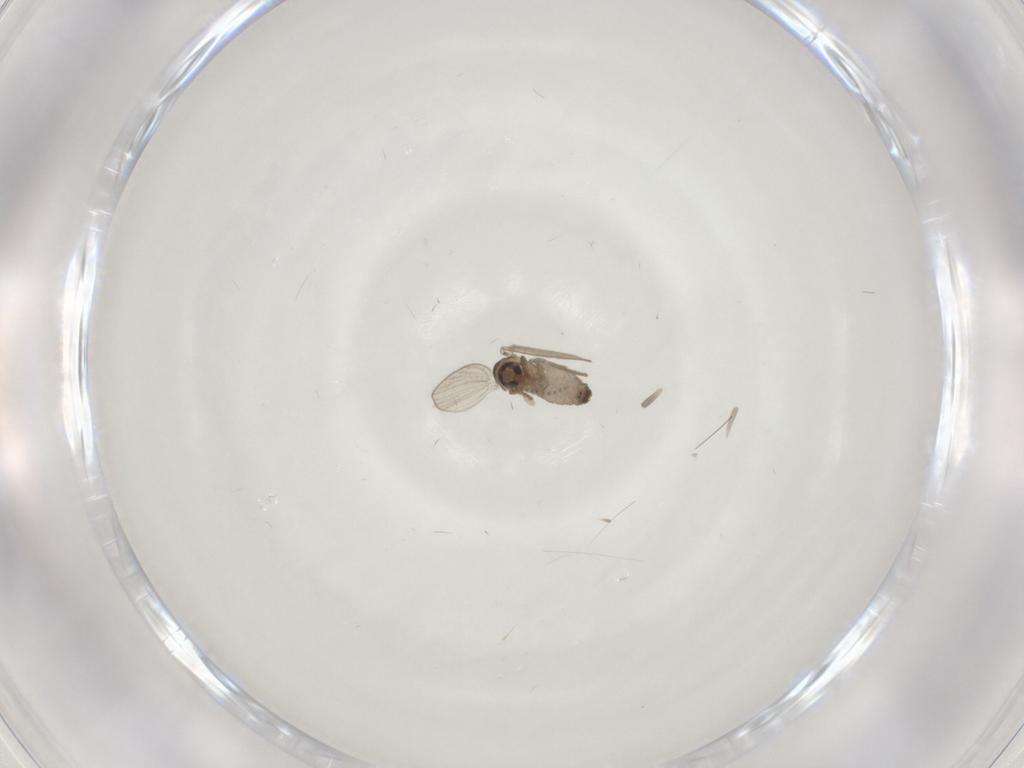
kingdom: Animalia
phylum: Arthropoda
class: Insecta
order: Diptera
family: Psychodidae
